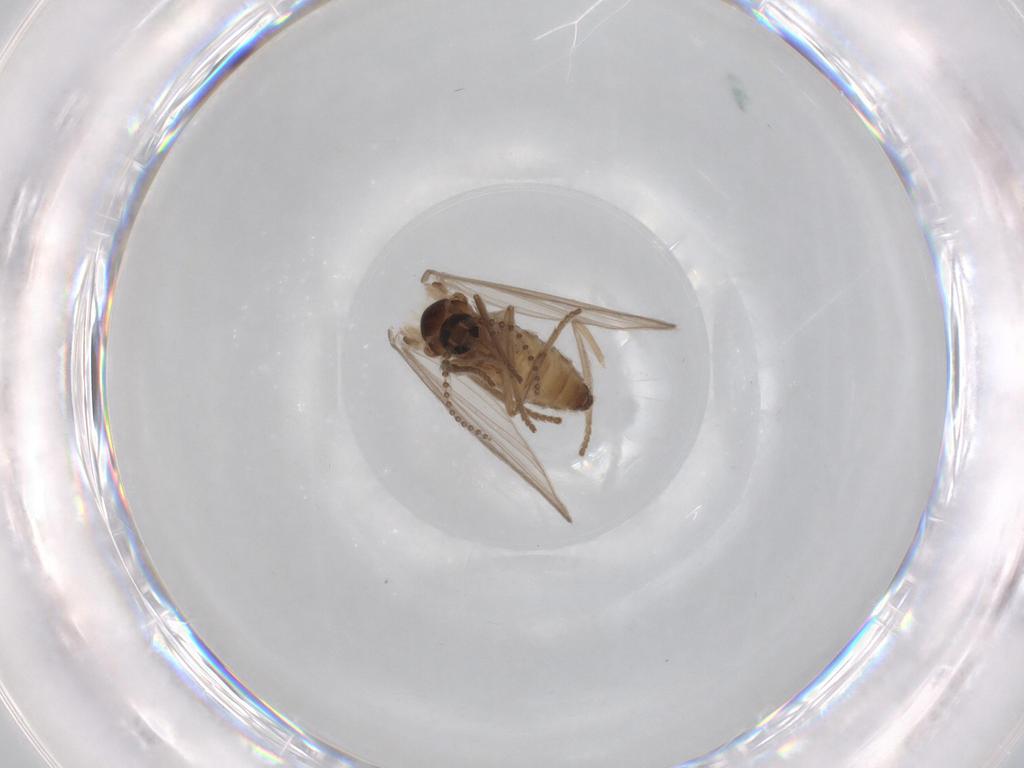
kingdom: Animalia
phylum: Arthropoda
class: Insecta
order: Diptera
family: Psychodidae
